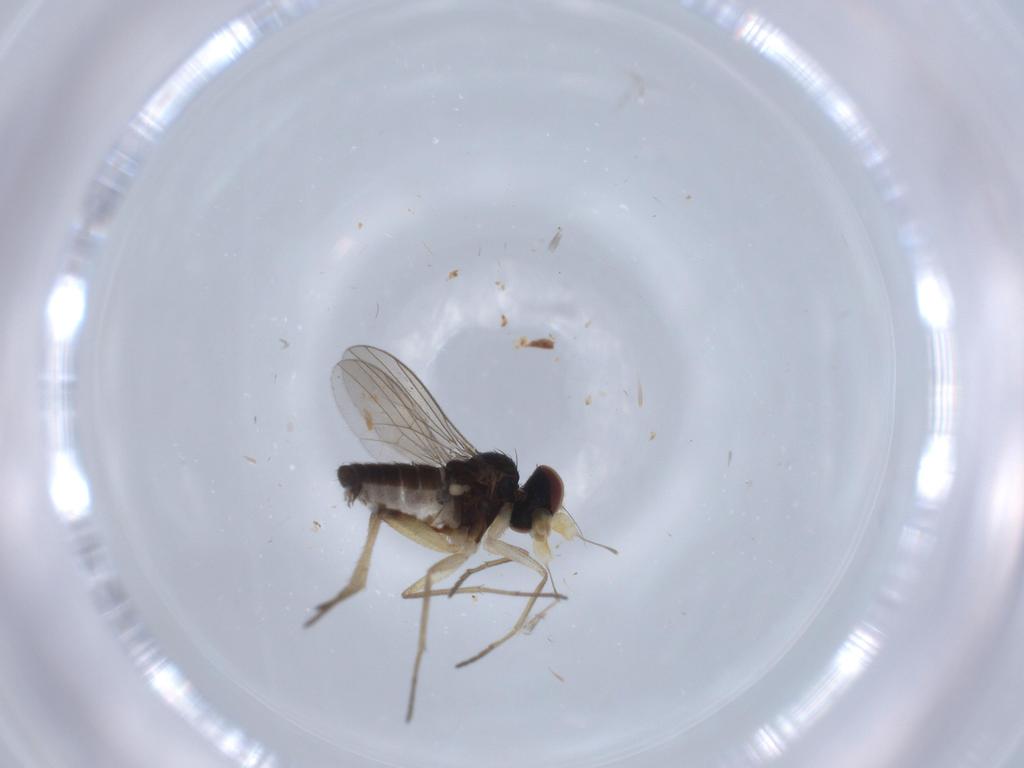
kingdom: Animalia
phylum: Arthropoda
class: Insecta
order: Diptera
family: Dolichopodidae
